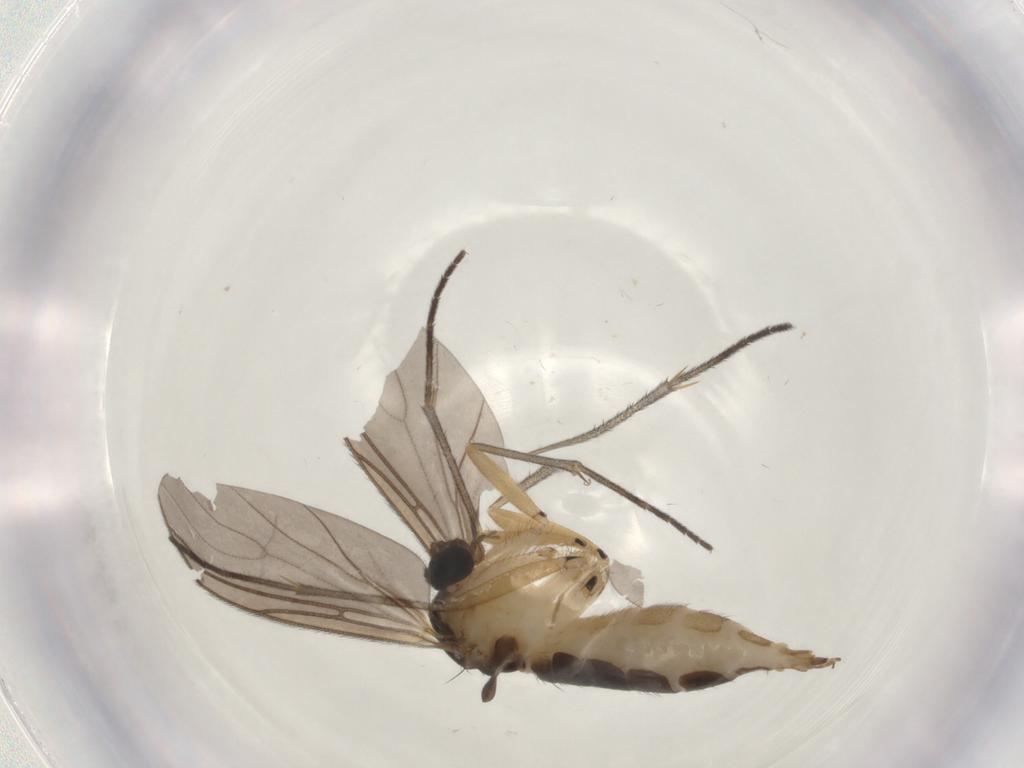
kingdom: Animalia
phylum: Arthropoda
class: Insecta
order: Diptera
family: Sciaridae
